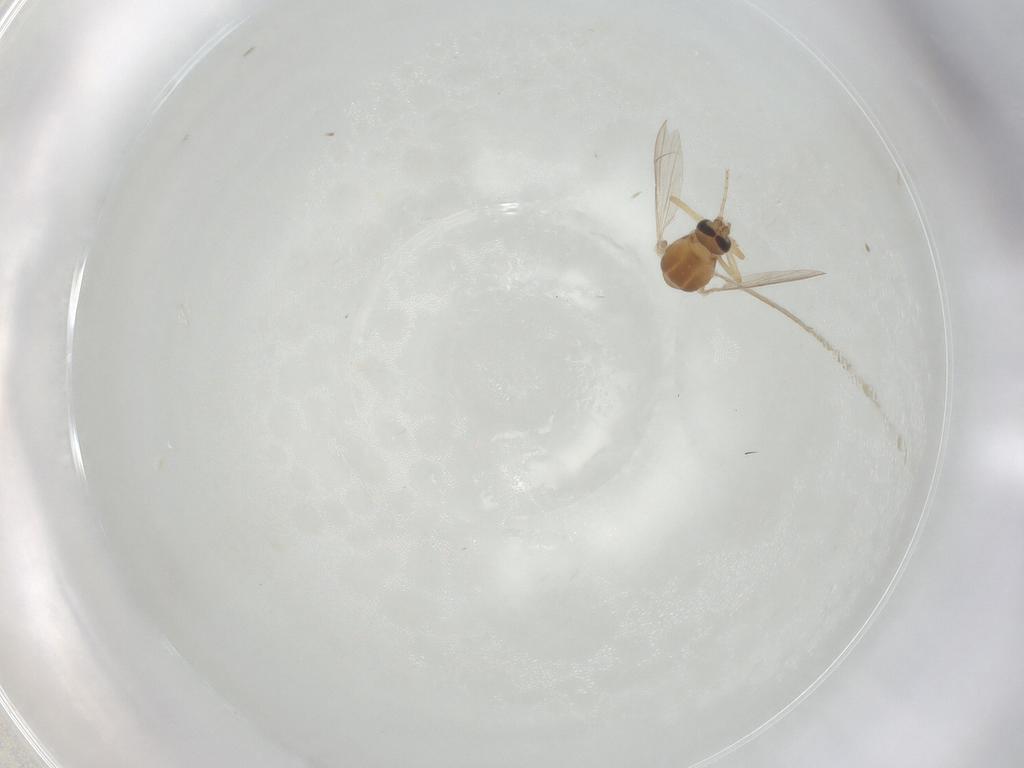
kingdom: Animalia
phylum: Arthropoda
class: Insecta
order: Diptera
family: Ceratopogonidae
